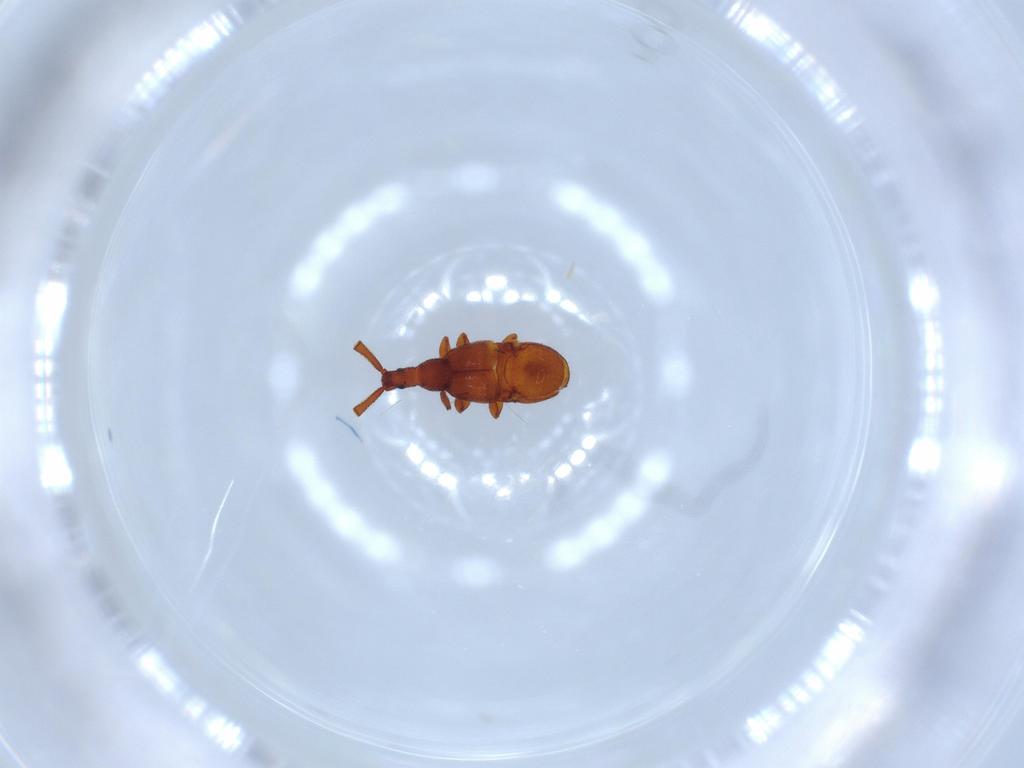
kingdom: Animalia
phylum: Arthropoda
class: Insecta
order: Coleoptera
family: Staphylinidae
